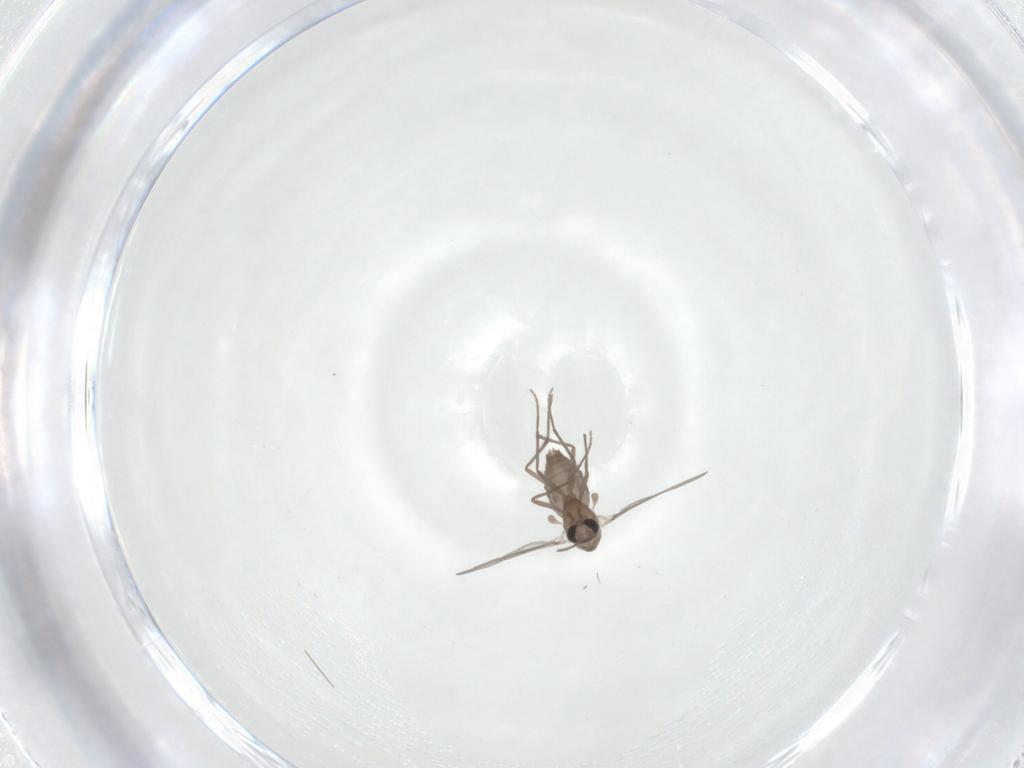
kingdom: Animalia
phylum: Arthropoda
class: Insecta
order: Diptera
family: Chironomidae
